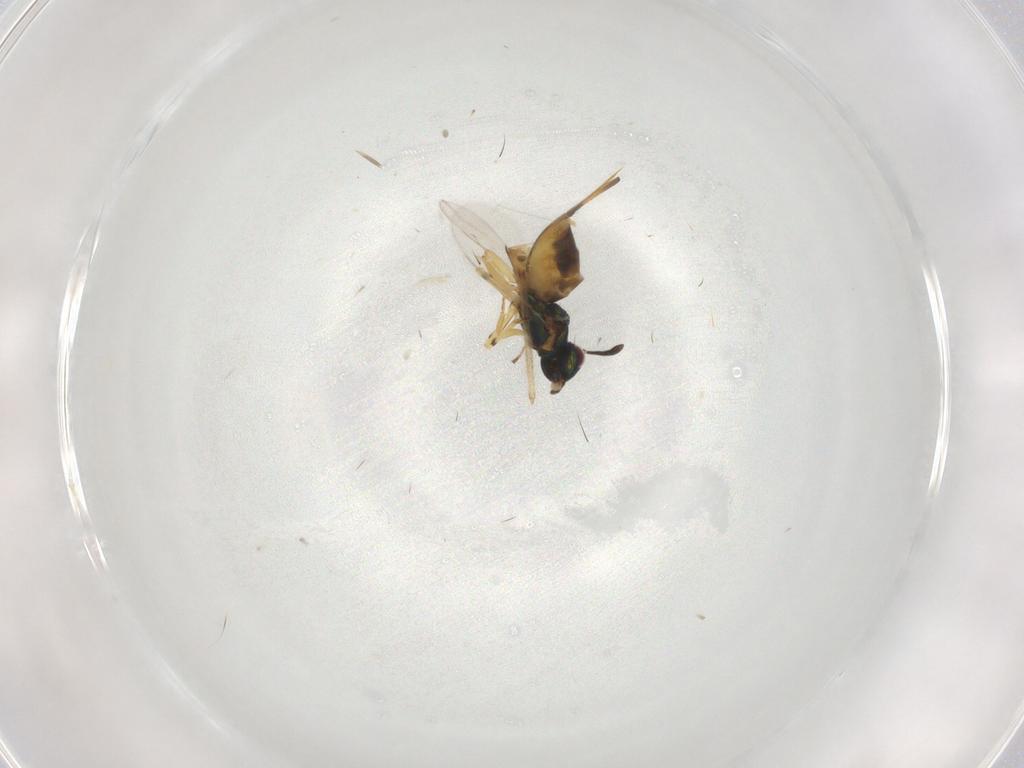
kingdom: Animalia
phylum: Arthropoda
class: Insecta
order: Hymenoptera
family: Eupelmidae
